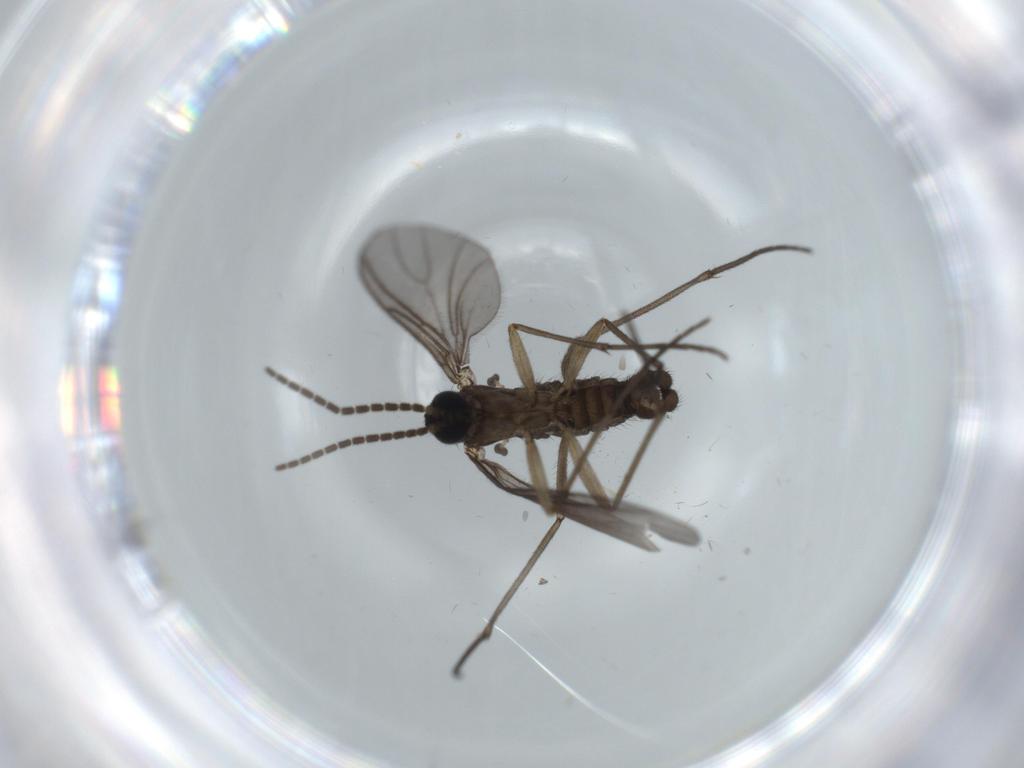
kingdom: Animalia
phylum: Arthropoda
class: Insecta
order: Diptera
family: Sciaridae
